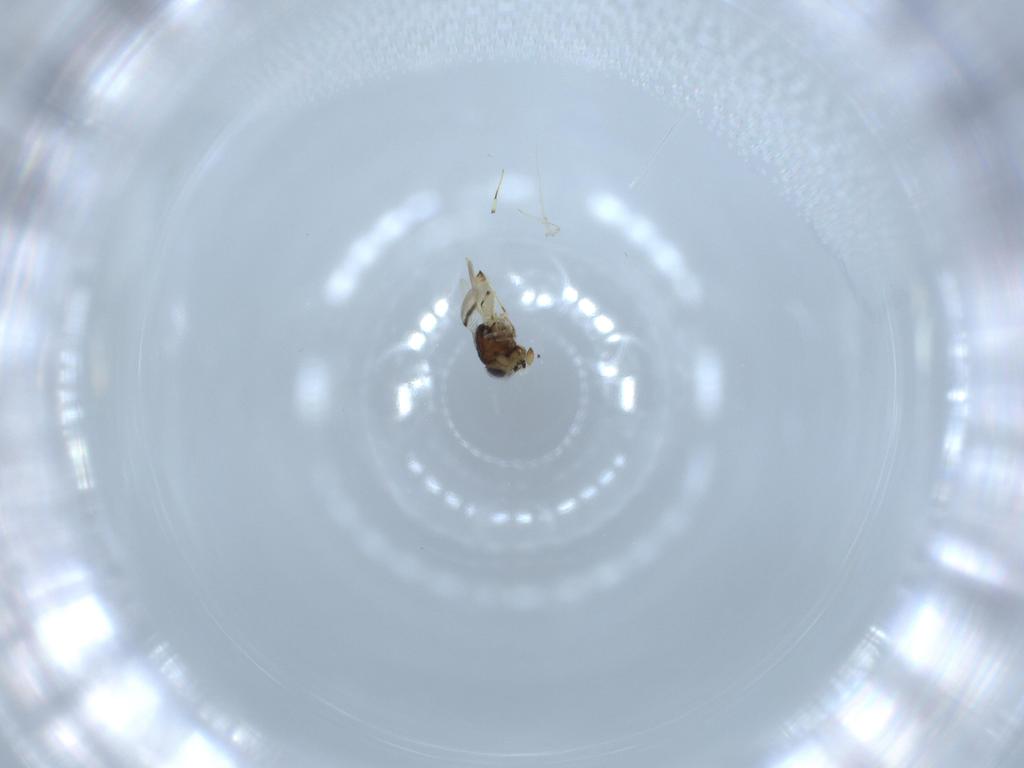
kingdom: Animalia
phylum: Arthropoda
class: Insecta
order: Hymenoptera
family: Scelionidae
